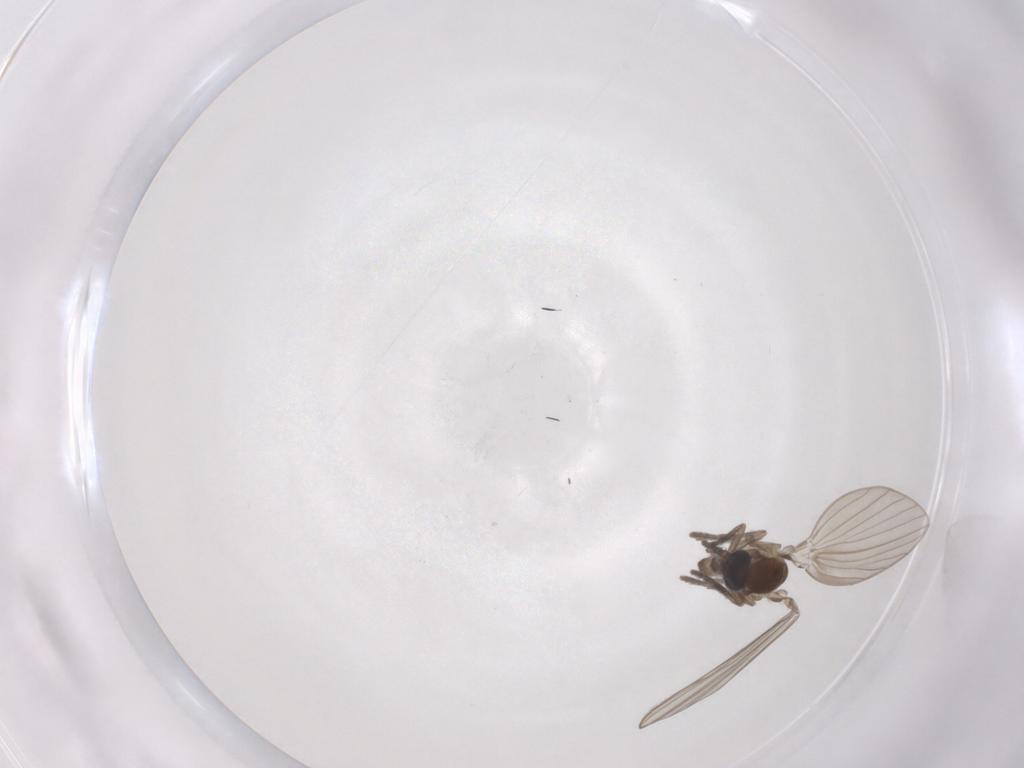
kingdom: Animalia
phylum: Arthropoda
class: Insecta
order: Diptera
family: Psychodidae
